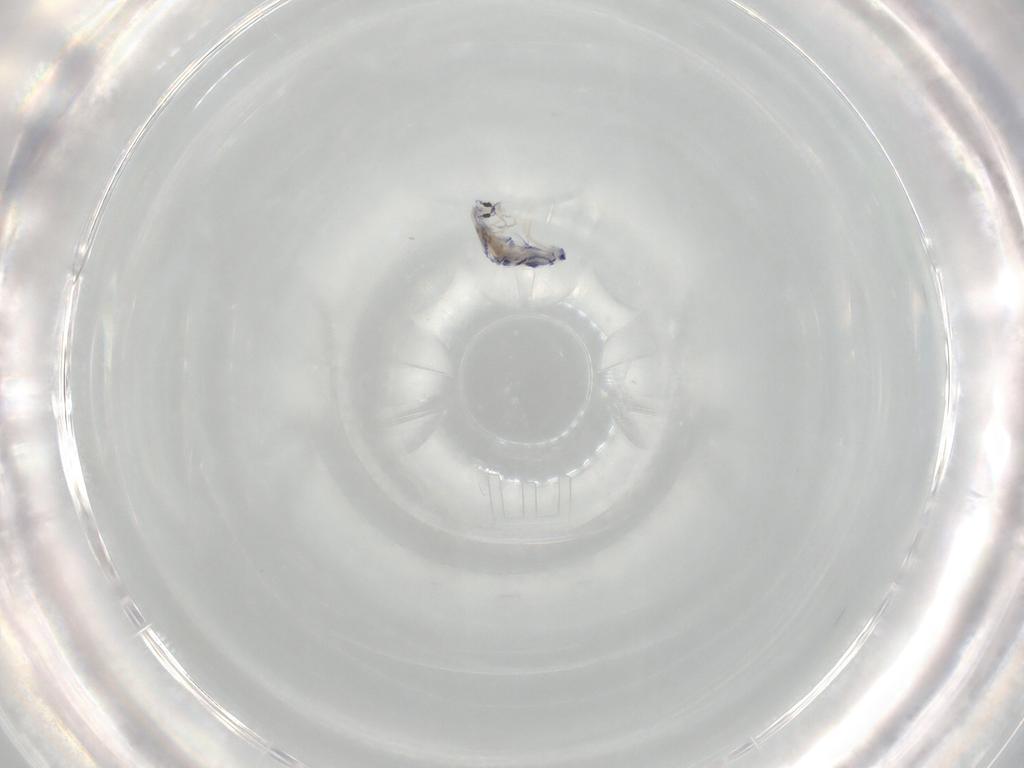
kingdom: Animalia
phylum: Arthropoda
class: Collembola
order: Entomobryomorpha
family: Entomobryidae
